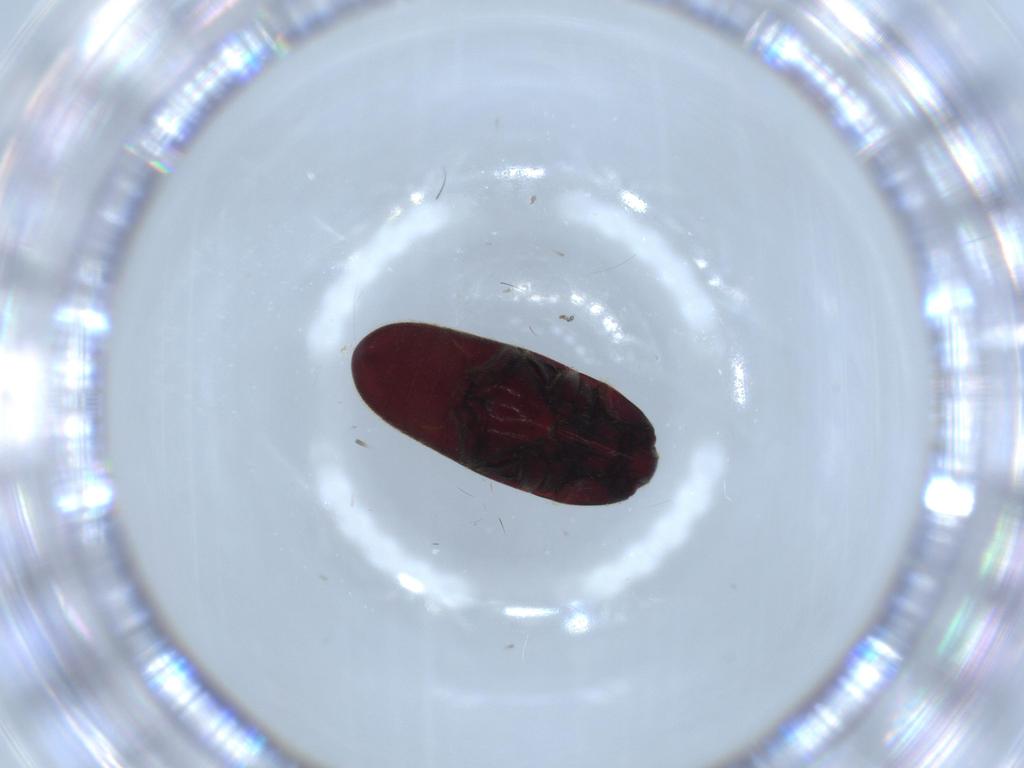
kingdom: Animalia
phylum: Arthropoda
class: Insecta
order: Coleoptera
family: Throscidae
